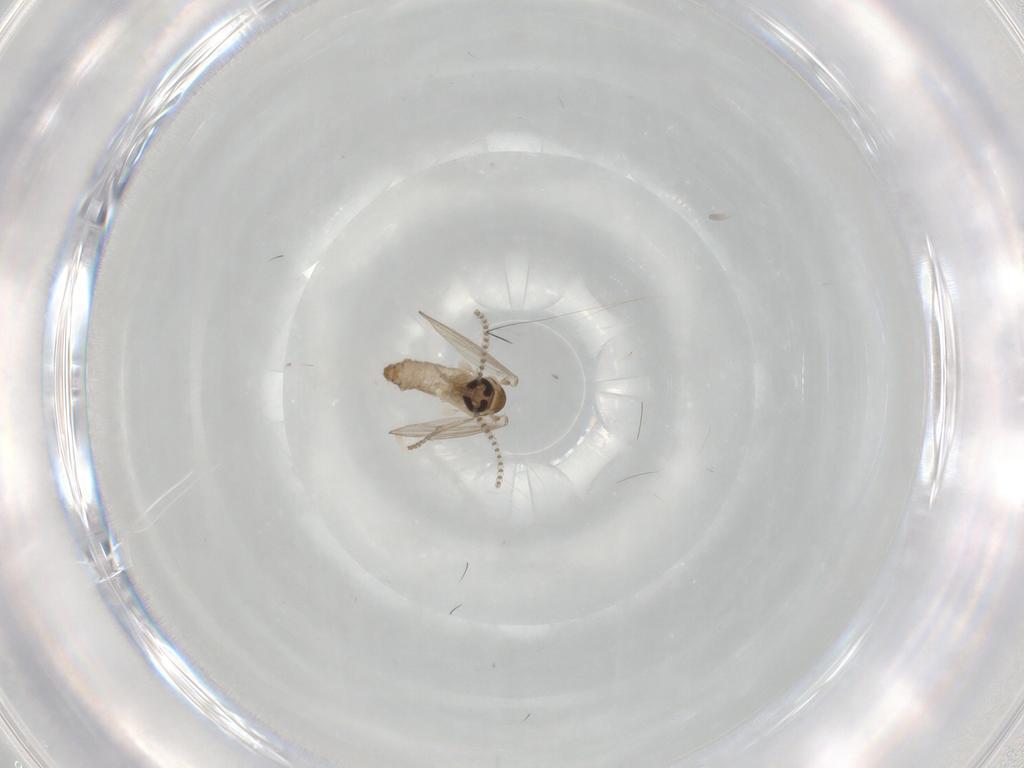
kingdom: Animalia
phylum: Arthropoda
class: Insecta
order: Diptera
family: Psychodidae
